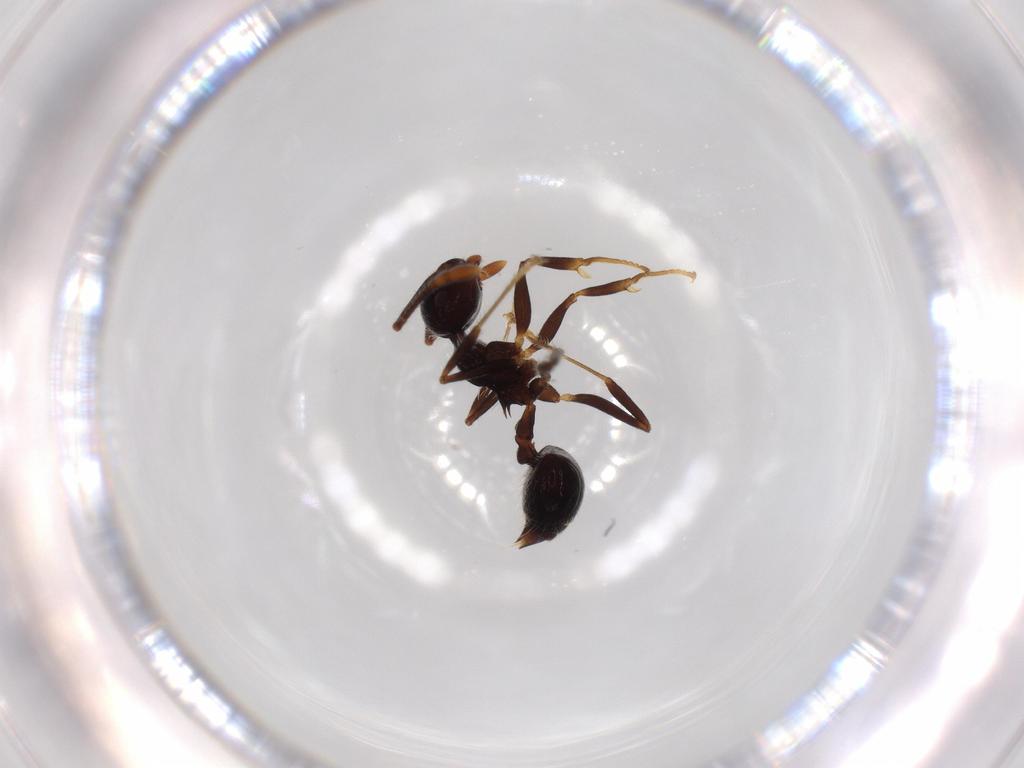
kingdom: Animalia
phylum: Arthropoda
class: Insecta
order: Hymenoptera
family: Formicidae
